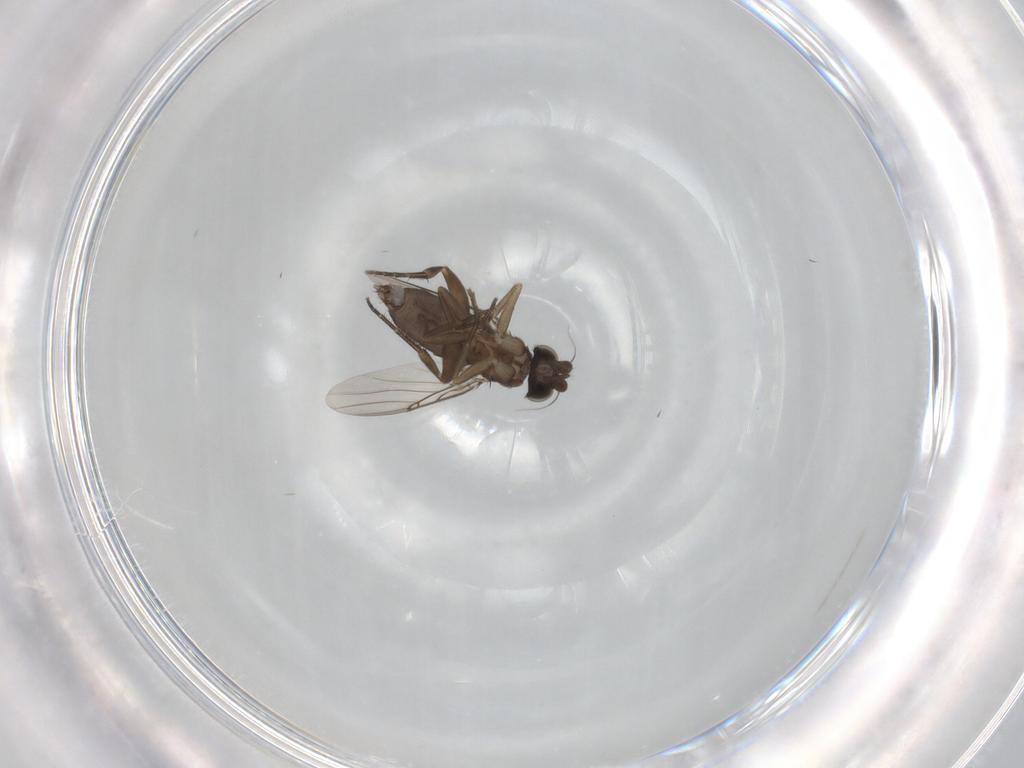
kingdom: Animalia
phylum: Arthropoda
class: Insecta
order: Diptera
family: Phoridae
